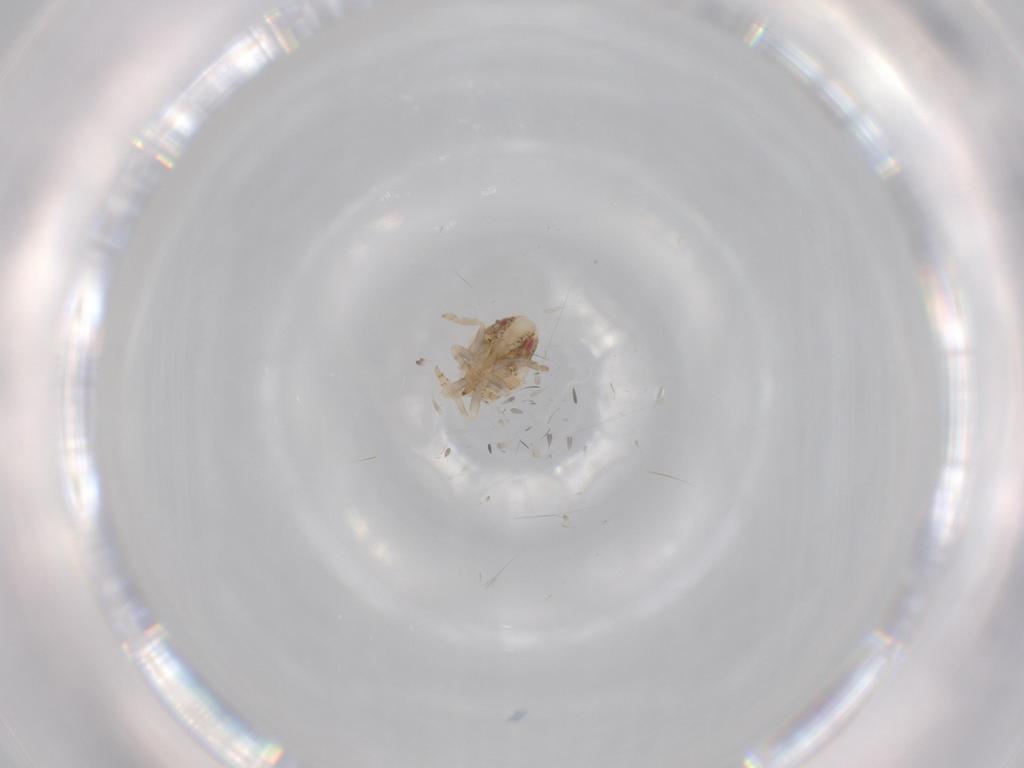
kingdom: Animalia
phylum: Arthropoda
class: Insecta
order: Hemiptera
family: Acanaloniidae
